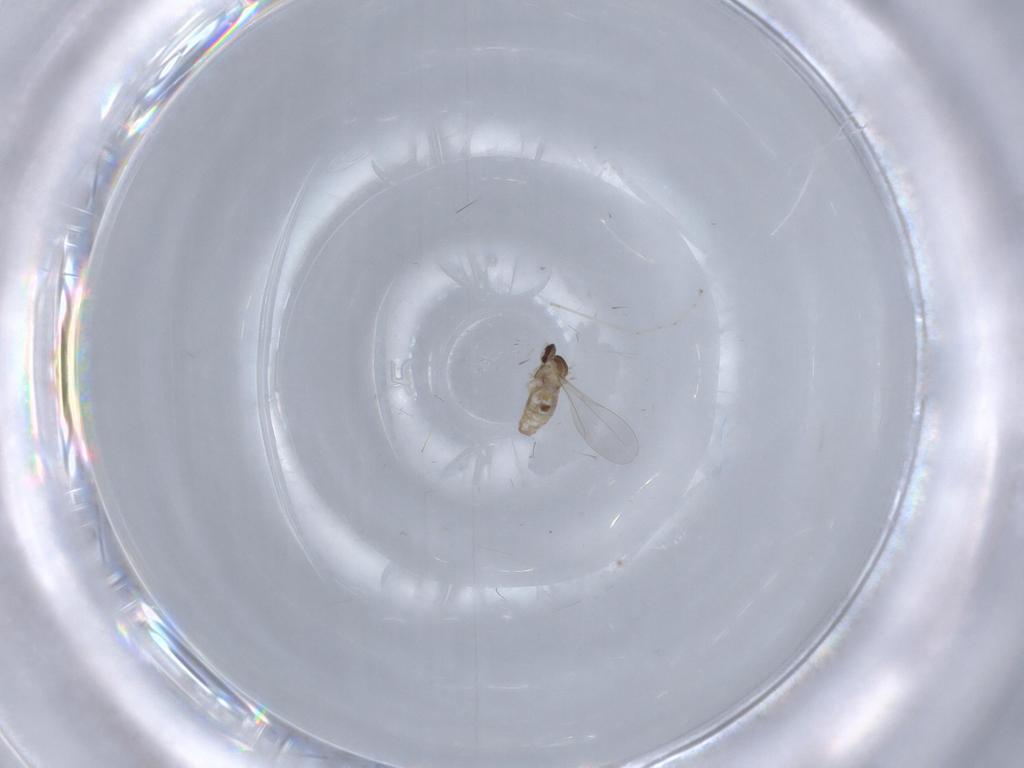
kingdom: Animalia
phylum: Arthropoda
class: Insecta
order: Diptera
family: Cecidomyiidae
